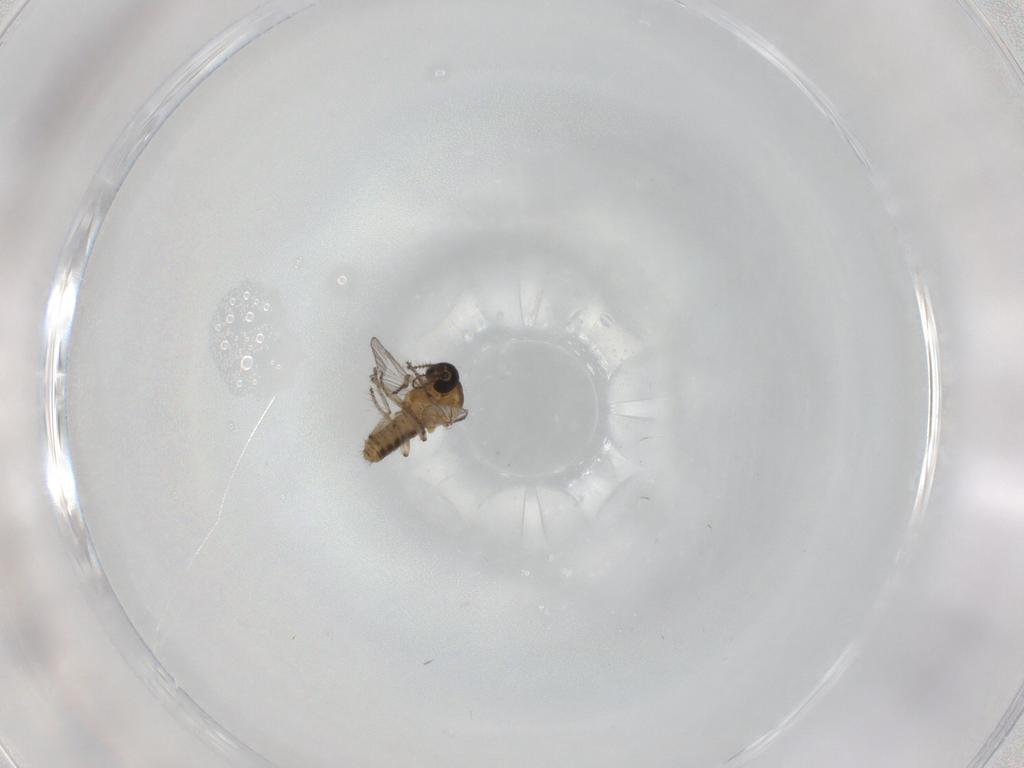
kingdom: Animalia
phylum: Arthropoda
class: Insecta
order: Diptera
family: Ceratopogonidae
